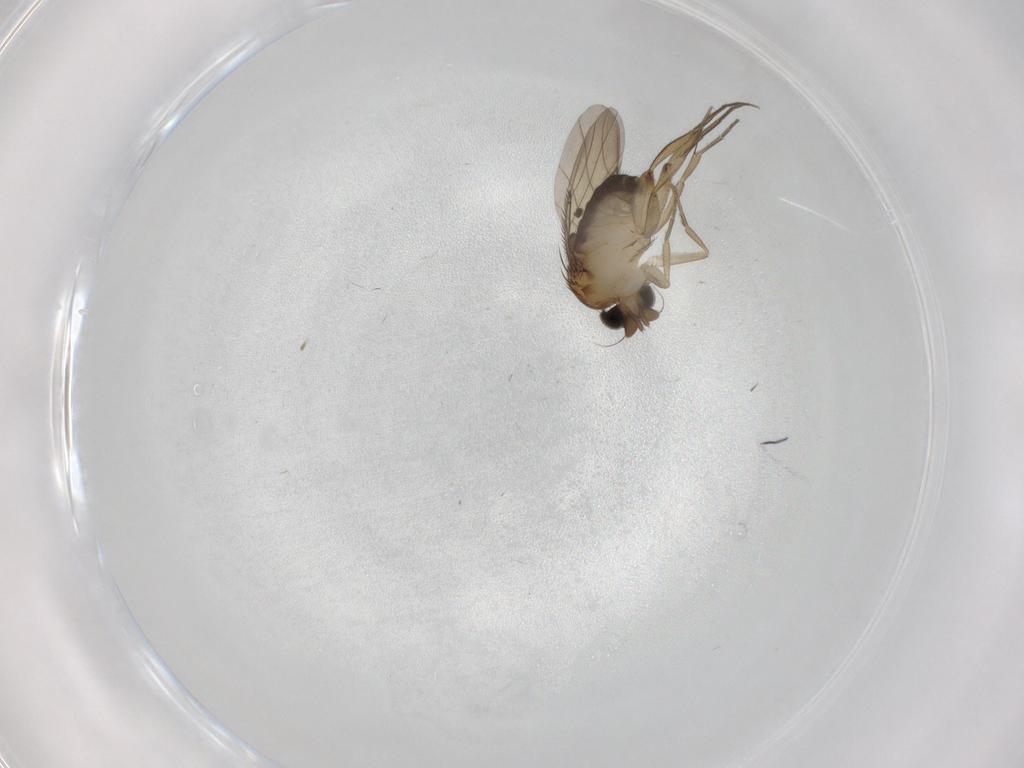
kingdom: Animalia
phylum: Arthropoda
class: Insecta
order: Diptera
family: Phoridae
